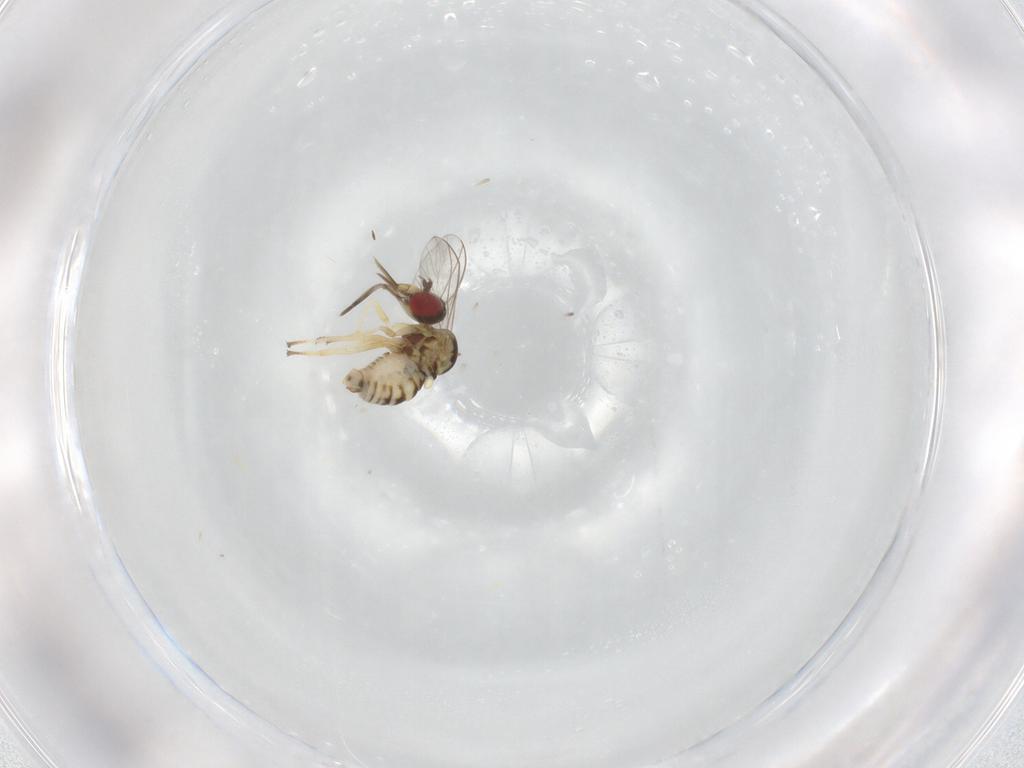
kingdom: Animalia
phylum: Arthropoda
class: Insecta
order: Diptera
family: Bombyliidae
